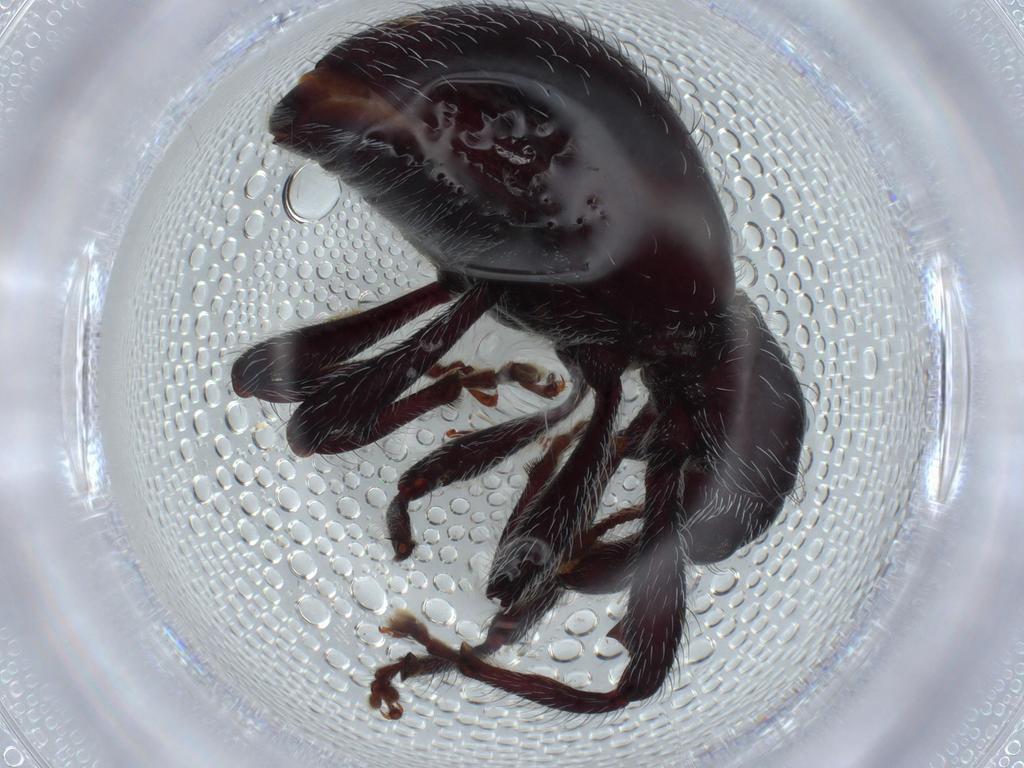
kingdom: Animalia
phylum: Arthropoda
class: Insecta
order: Coleoptera
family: Curculionidae
